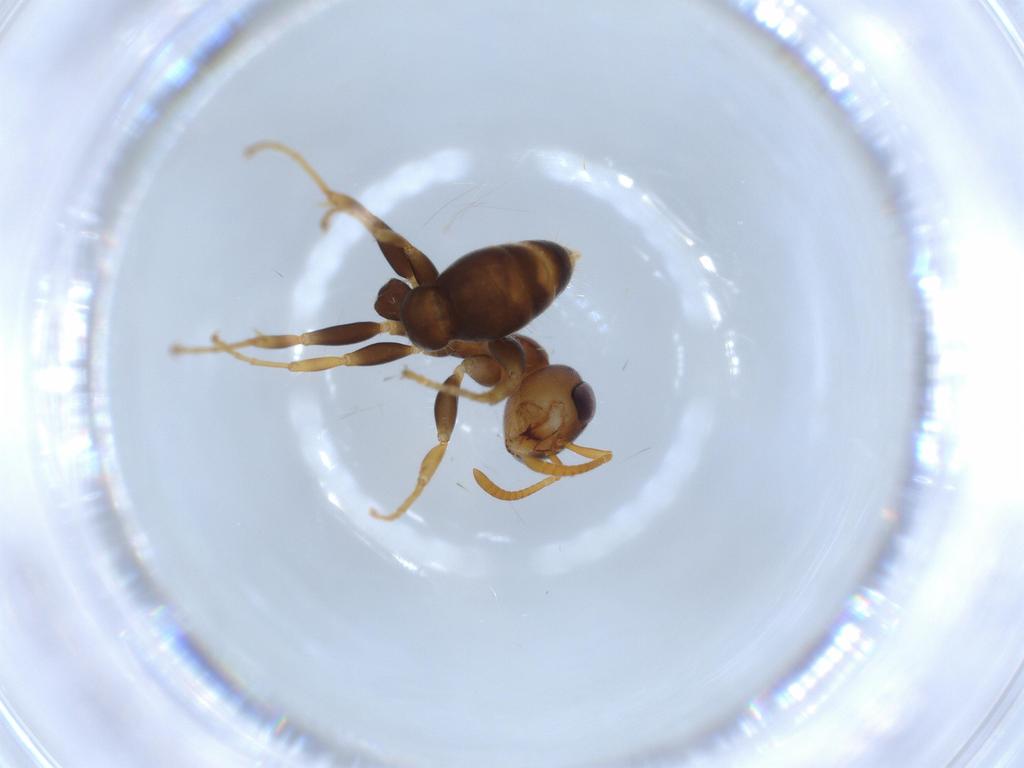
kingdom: Animalia
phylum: Arthropoda
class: Insecta
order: Hymenoptera
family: Formicidae
